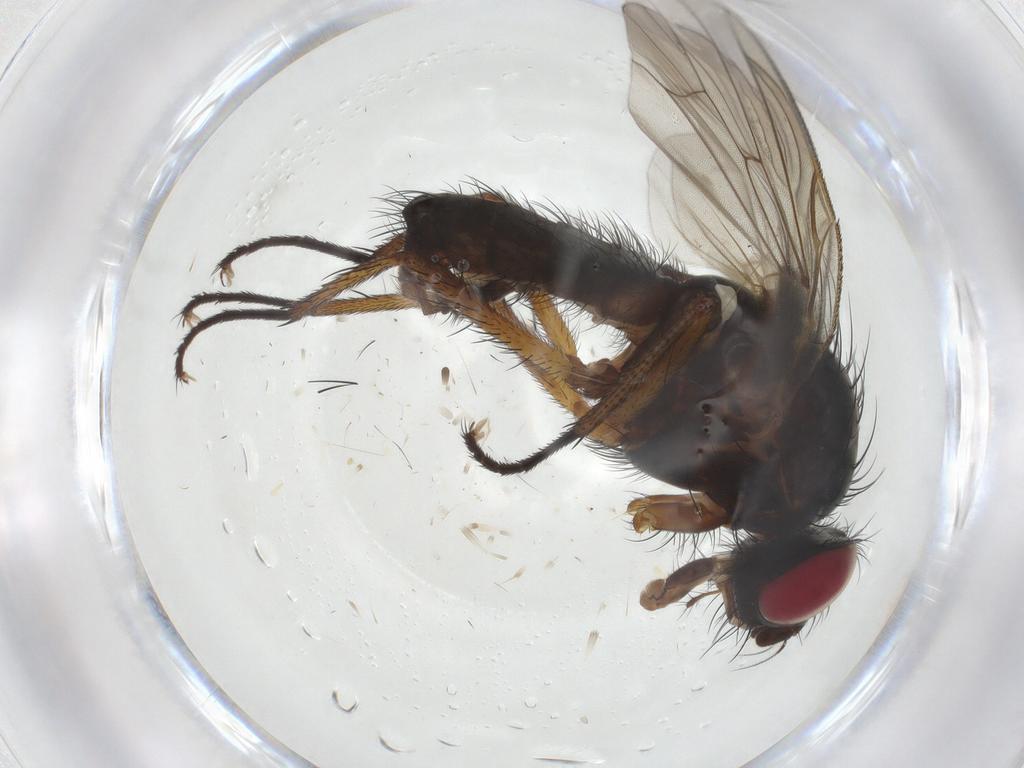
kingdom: Animalia
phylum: Arthropoda
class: Insecta
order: Diptera
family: Anthomyiidae
